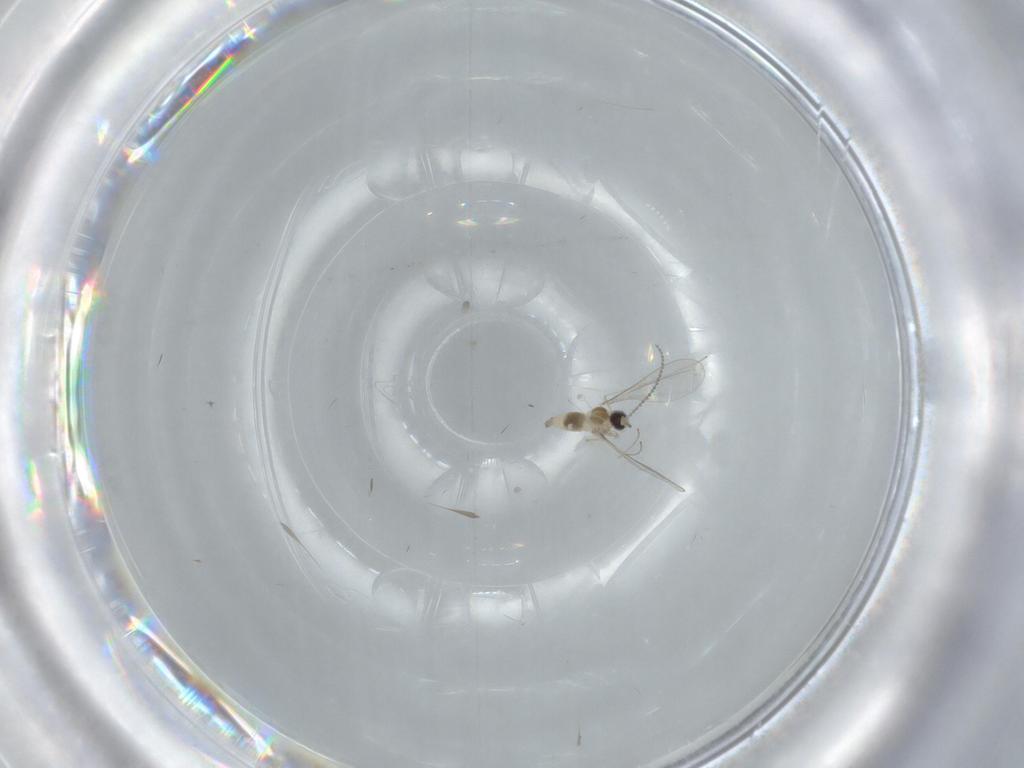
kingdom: Animalia
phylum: Arthropoda
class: Insecta
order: Diptera
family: Cecidomyiidae
